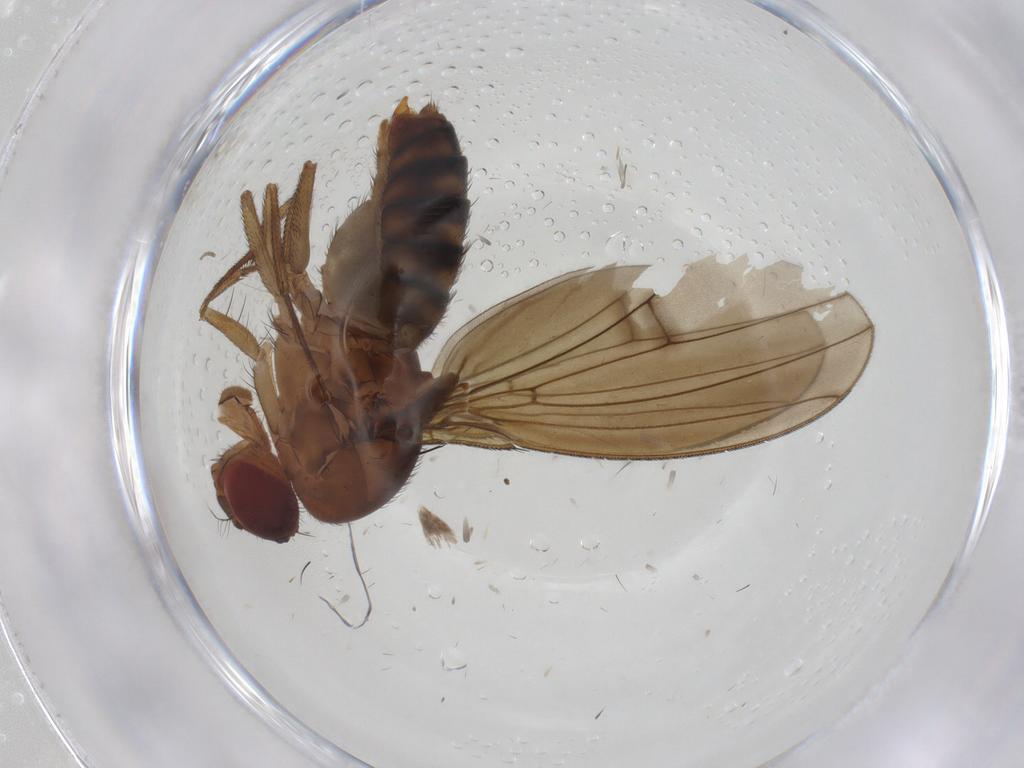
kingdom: Animalia
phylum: Arthropoda
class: Insecta
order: Diptera
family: Drosophilidae
